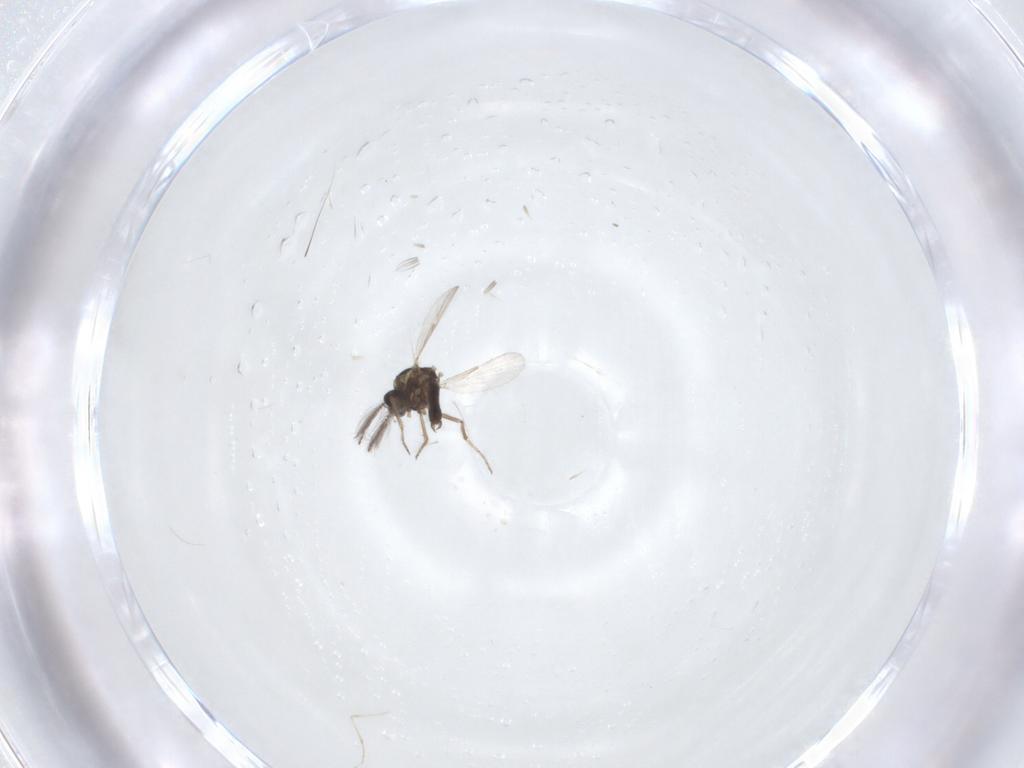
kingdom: Animalia
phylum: Arthropoda
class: Insecta
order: Diptera
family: Ceratopogonidae
